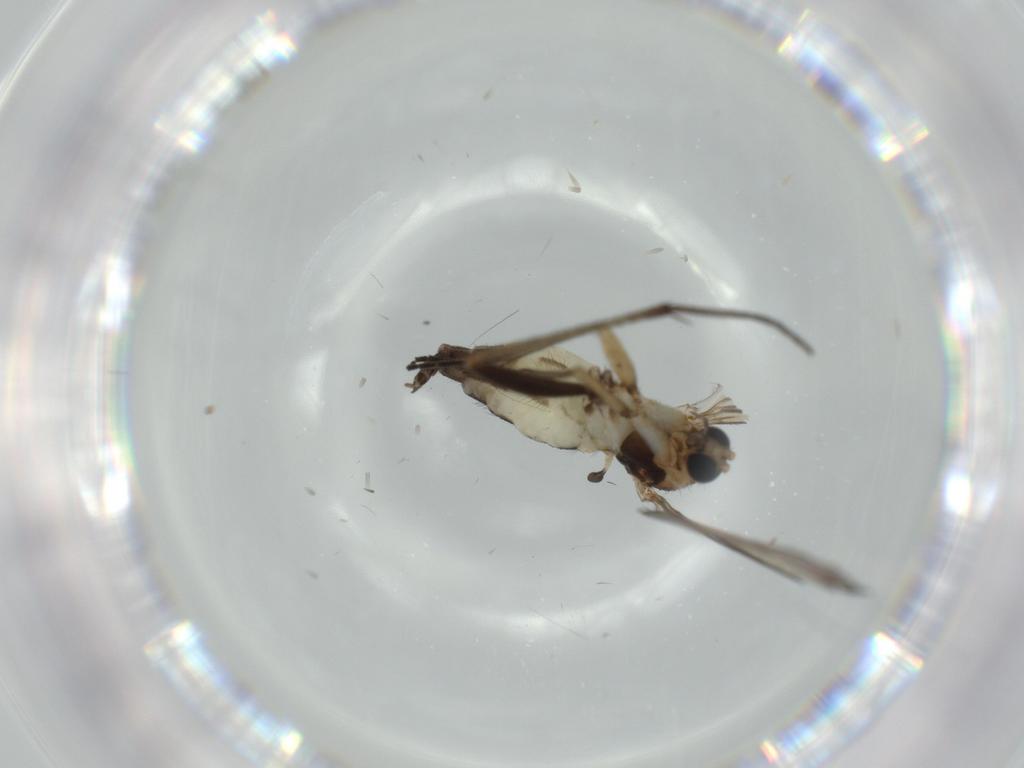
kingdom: Animalia
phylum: Arthropoda
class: Insecta
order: Diptera
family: Sciaridae
